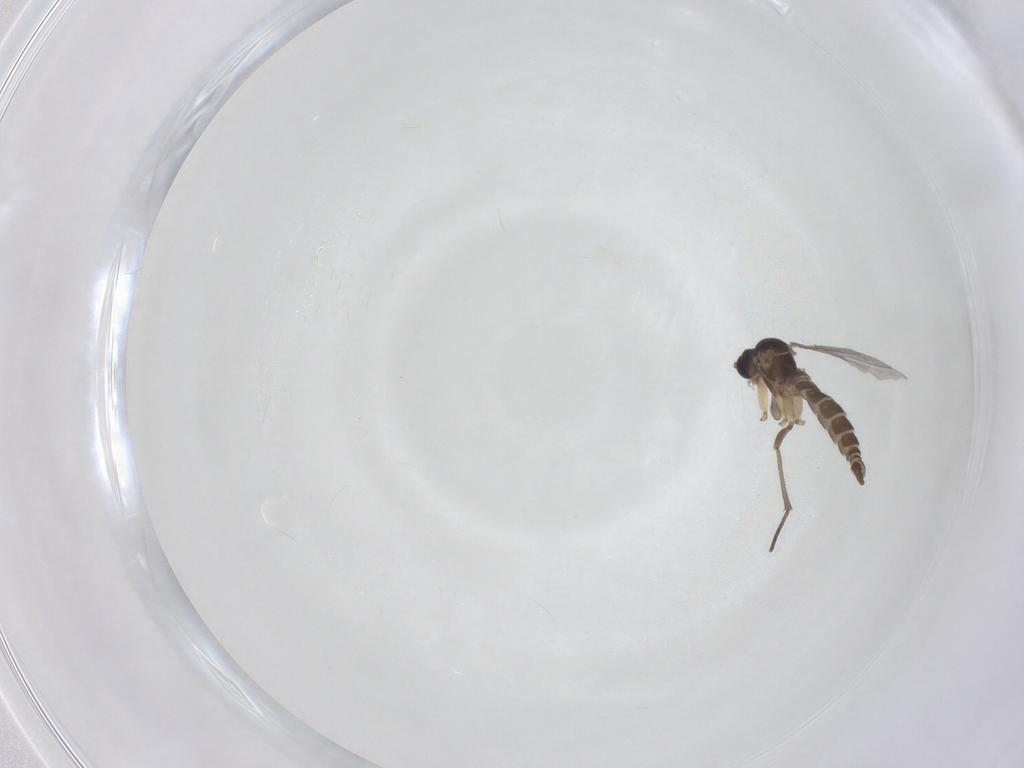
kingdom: Animalia
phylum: Arthropoda
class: Insecta
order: Diptera
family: Sciaridae
